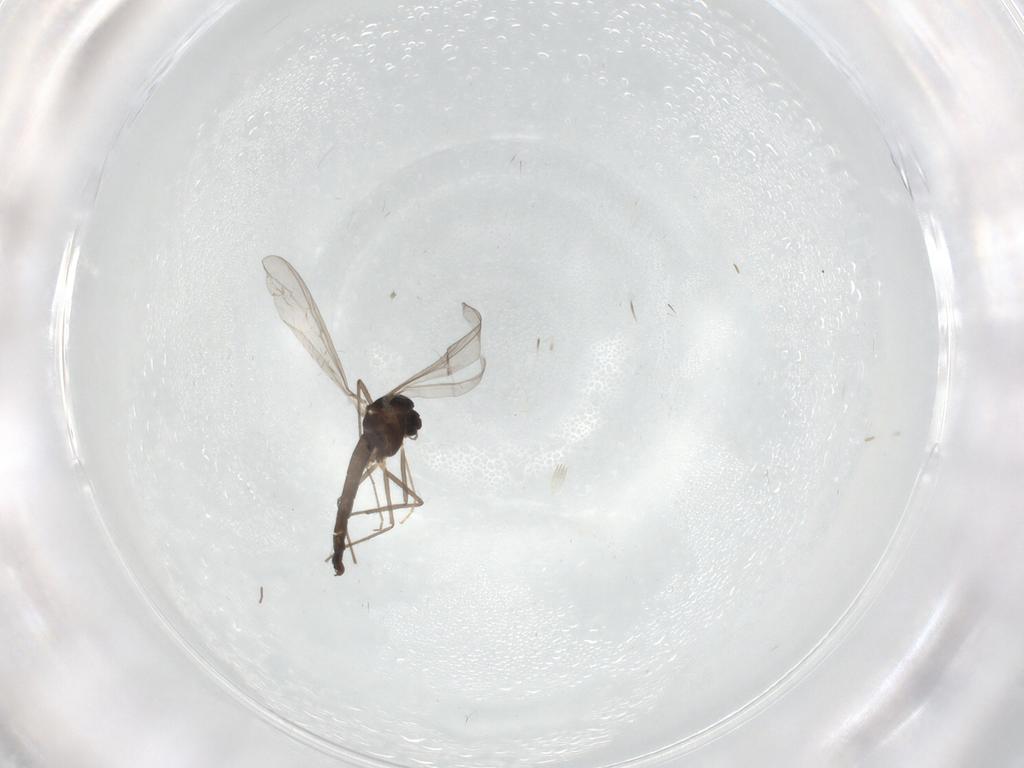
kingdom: Animalia
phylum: Arthropoda
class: Insecta
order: Diptera
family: Chironomidae
